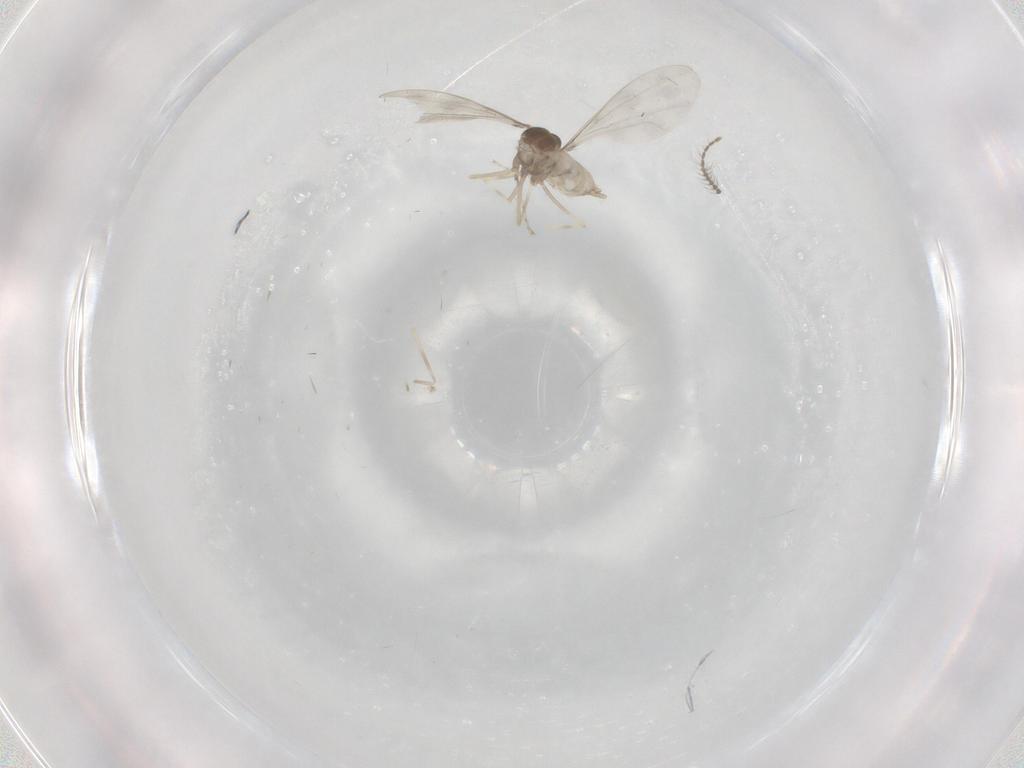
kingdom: Animalia
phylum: Arthropoda
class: Insecta
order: Diptera
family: Cecidomyiidae
